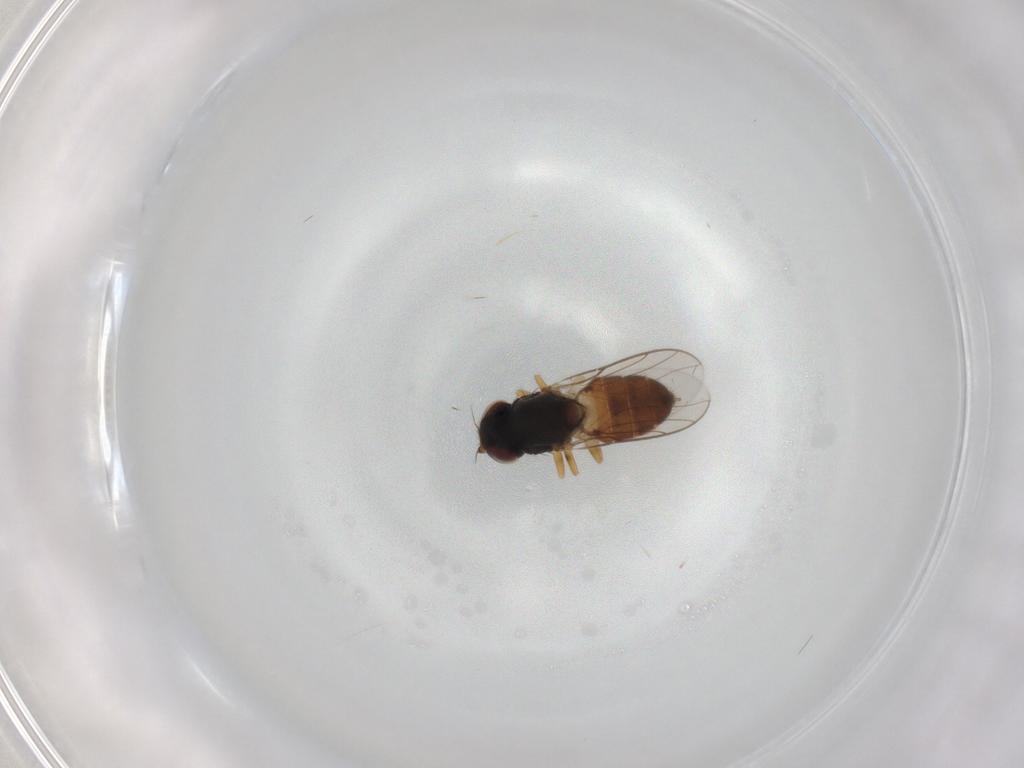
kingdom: Animalia
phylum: Arthropoda
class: Insecta
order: Diptera
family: Chloropidae
